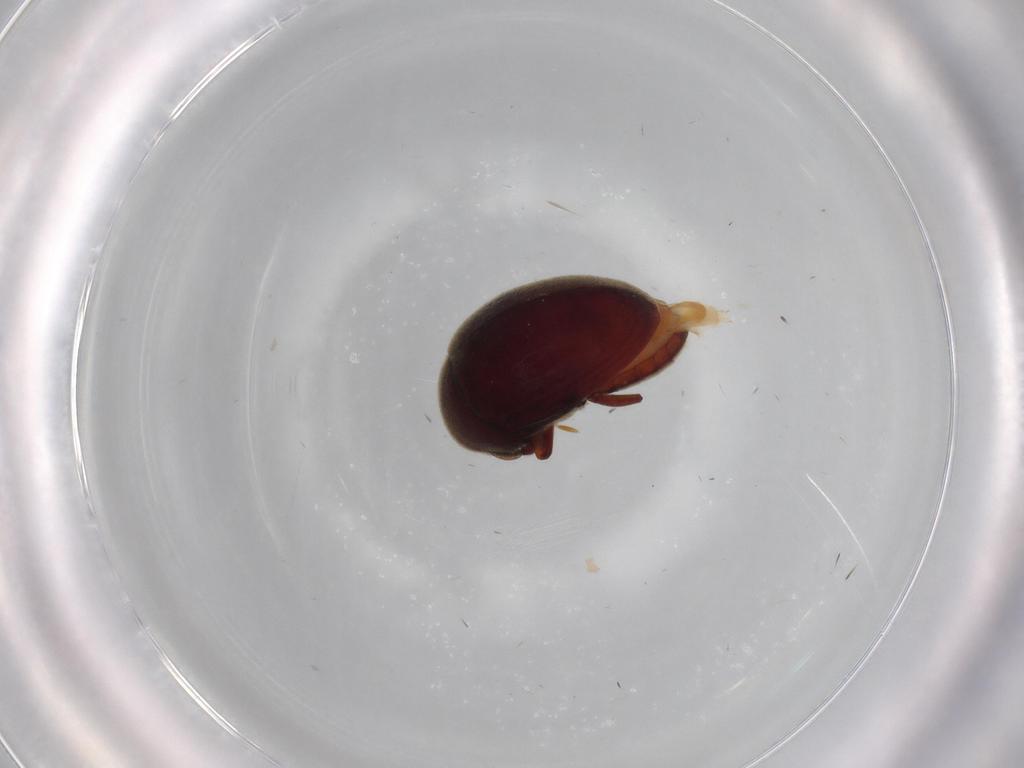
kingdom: Animalia
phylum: Arthropoda
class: Insecta
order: Coleoptera
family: Ptinidae
